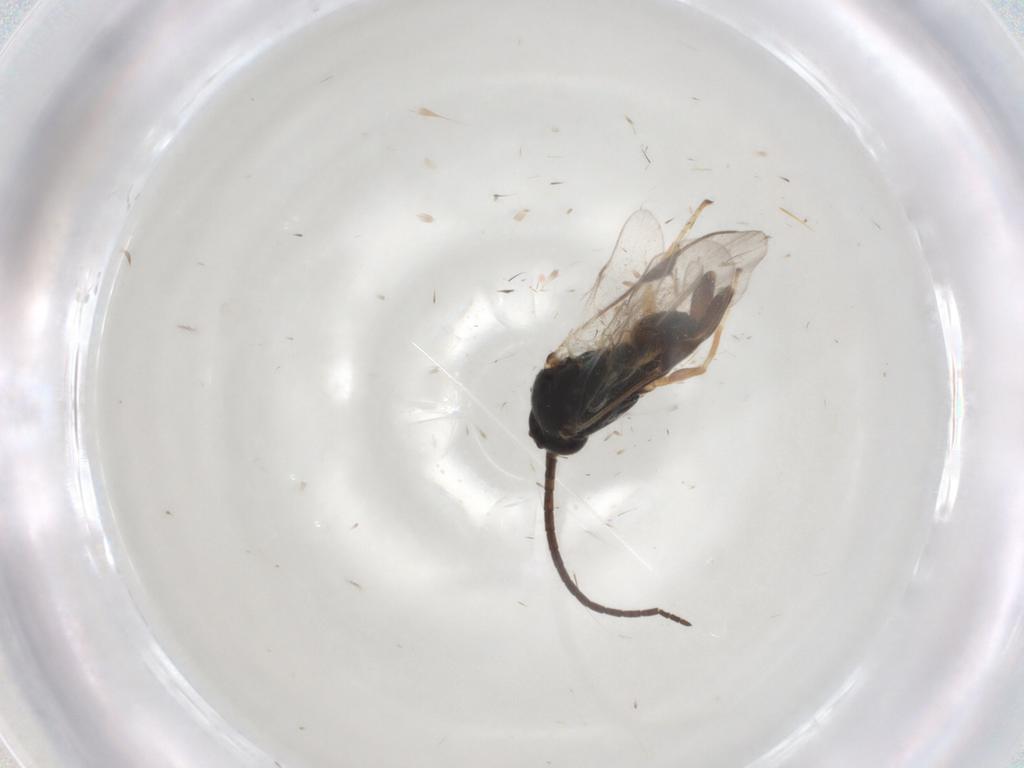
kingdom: Animalia
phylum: Arthropoda
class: Insecta
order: Hymenoptera
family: Braconidae
